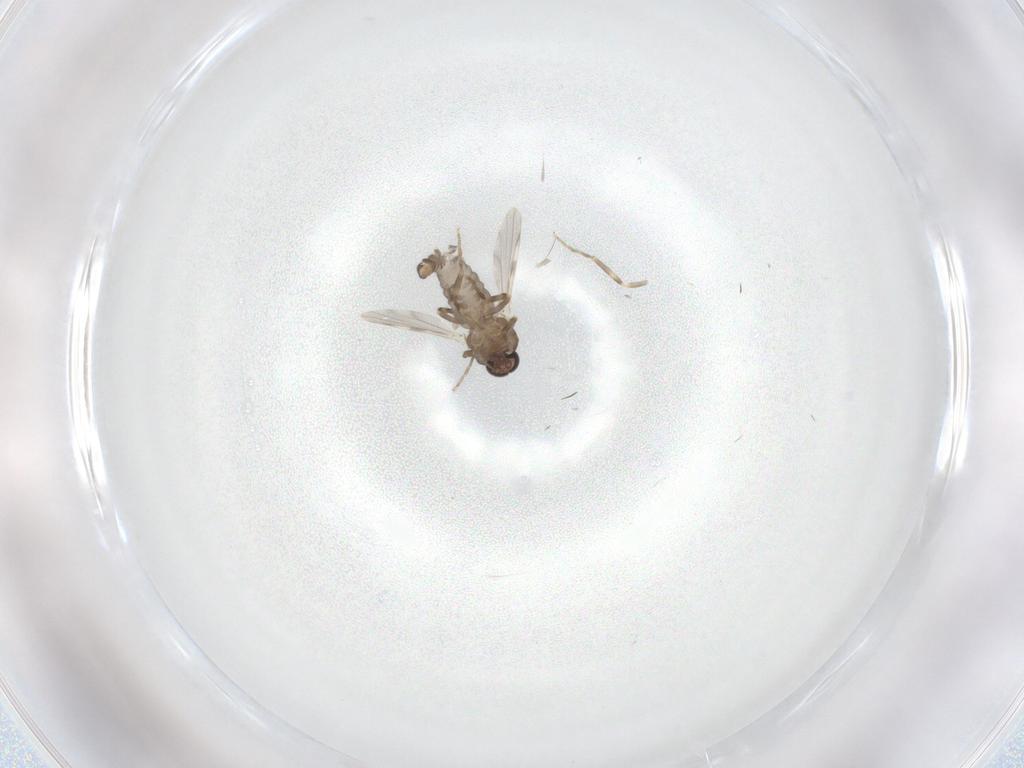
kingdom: Animalia
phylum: Arthropoda
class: Insecta
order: Diptera
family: Ceratopogonidae
